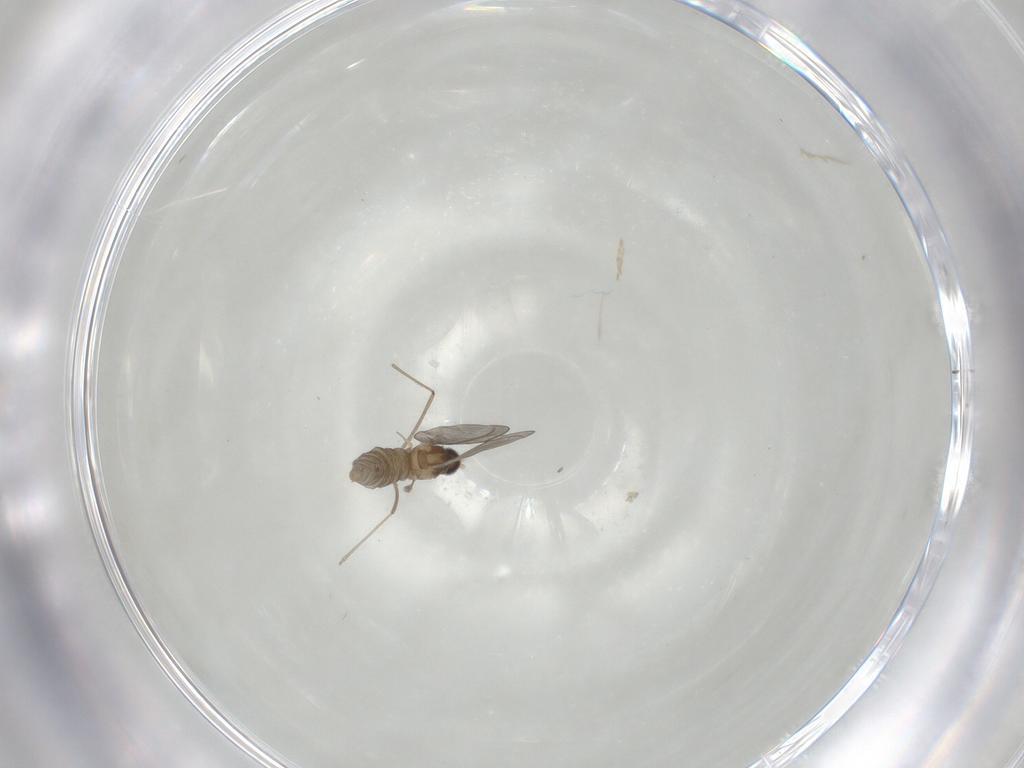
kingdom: Animalia
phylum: Arthropoda
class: Insecta
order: Diptera
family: Cecidomyiidae
